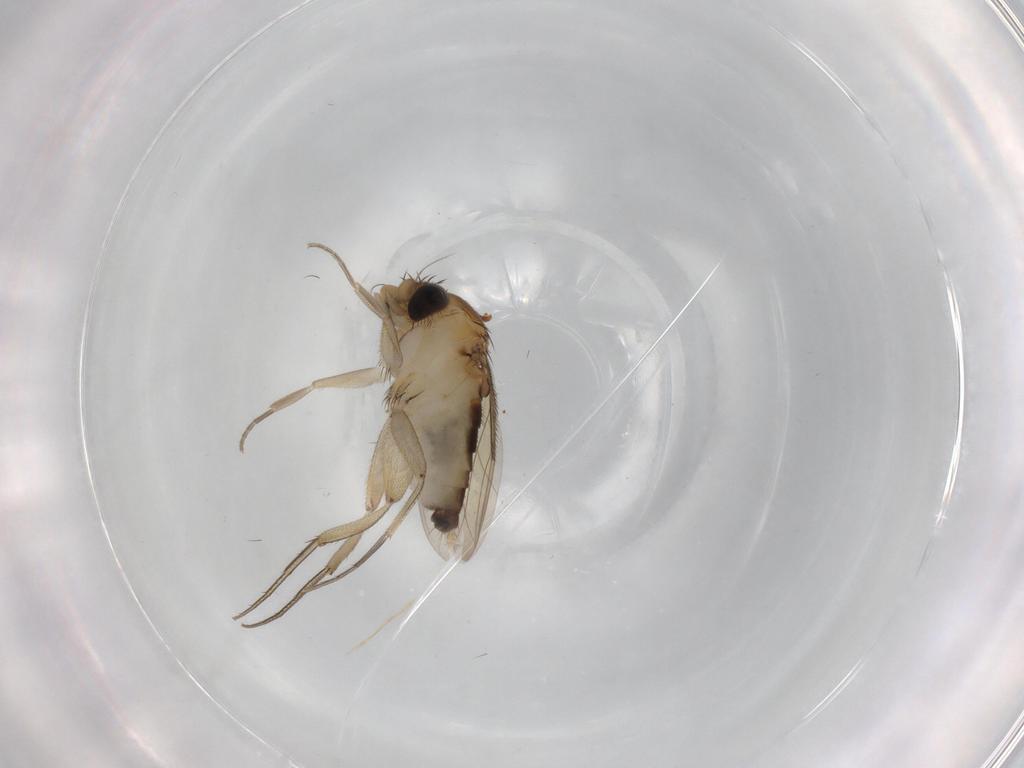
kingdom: Animalia
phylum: Arthropoda
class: Insecta
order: Diptera
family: Phoridae
